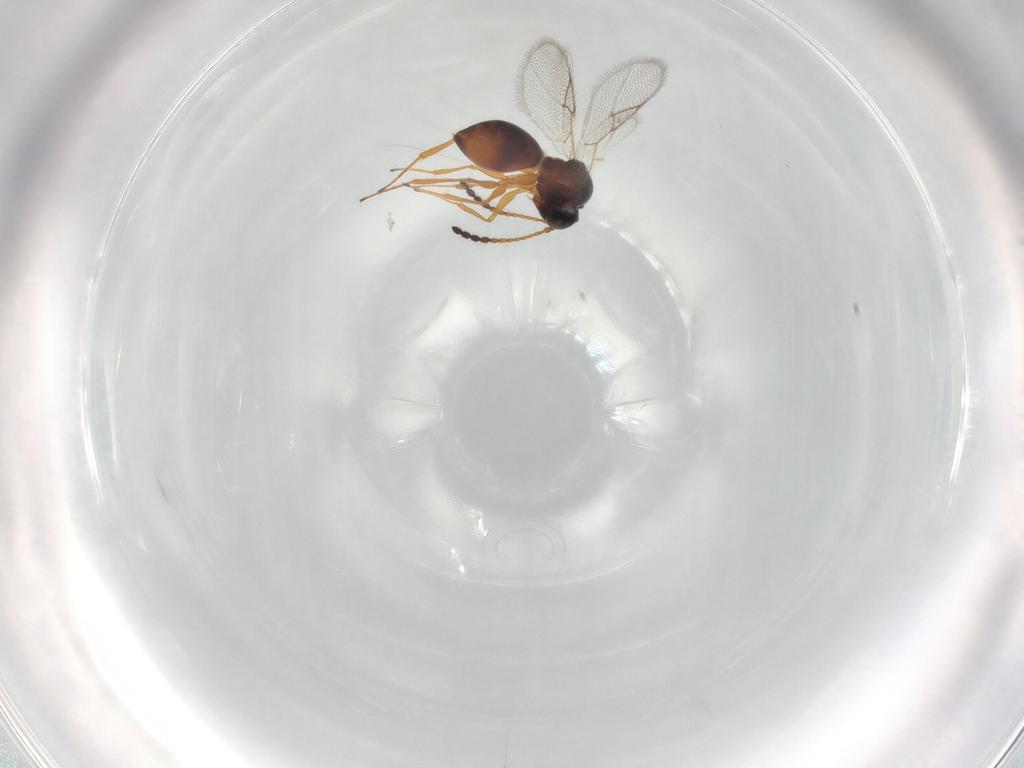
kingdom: Animalia
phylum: Arthropoda
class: Insecta
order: Hymenoptera
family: Figitidae
